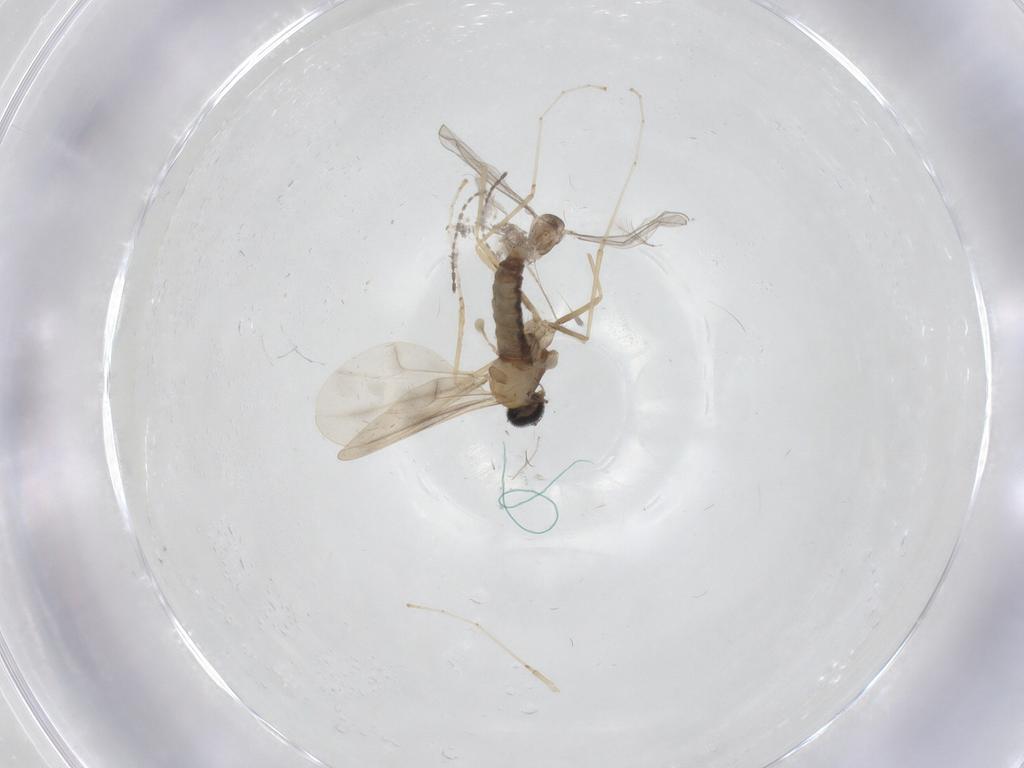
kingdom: Animalia
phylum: Arthropoda
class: Insecta
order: Diptera
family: Cecidomyiidae
